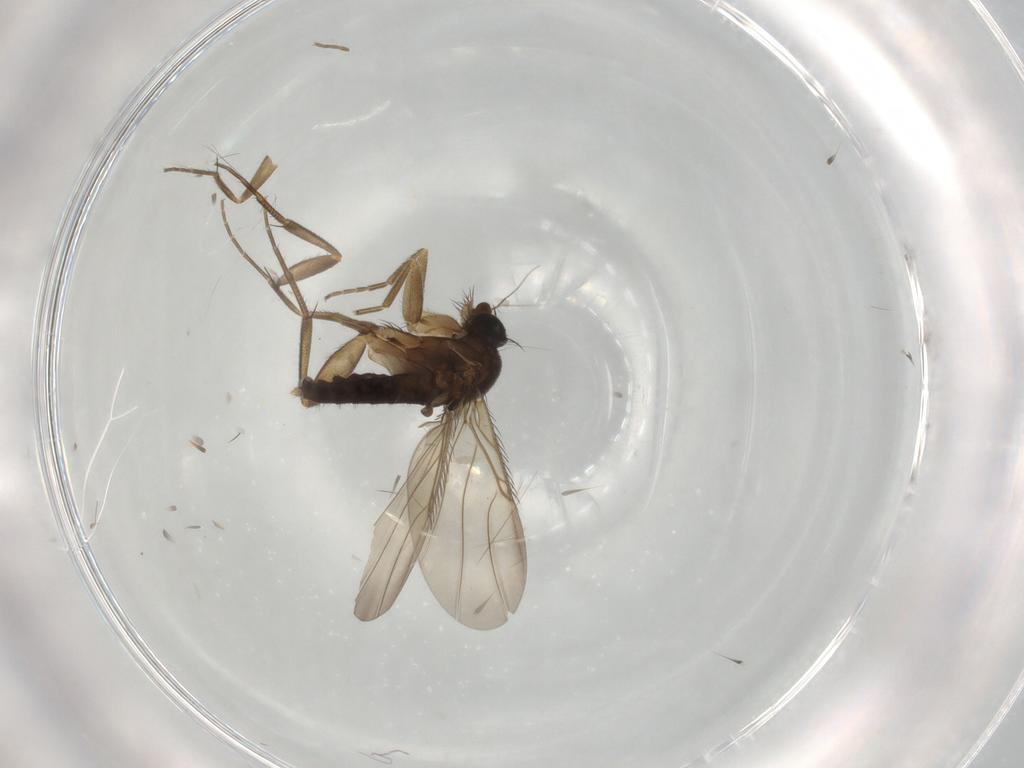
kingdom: Animalia
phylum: Arthropoda
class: Insecta
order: Diptera
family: Phoridae
